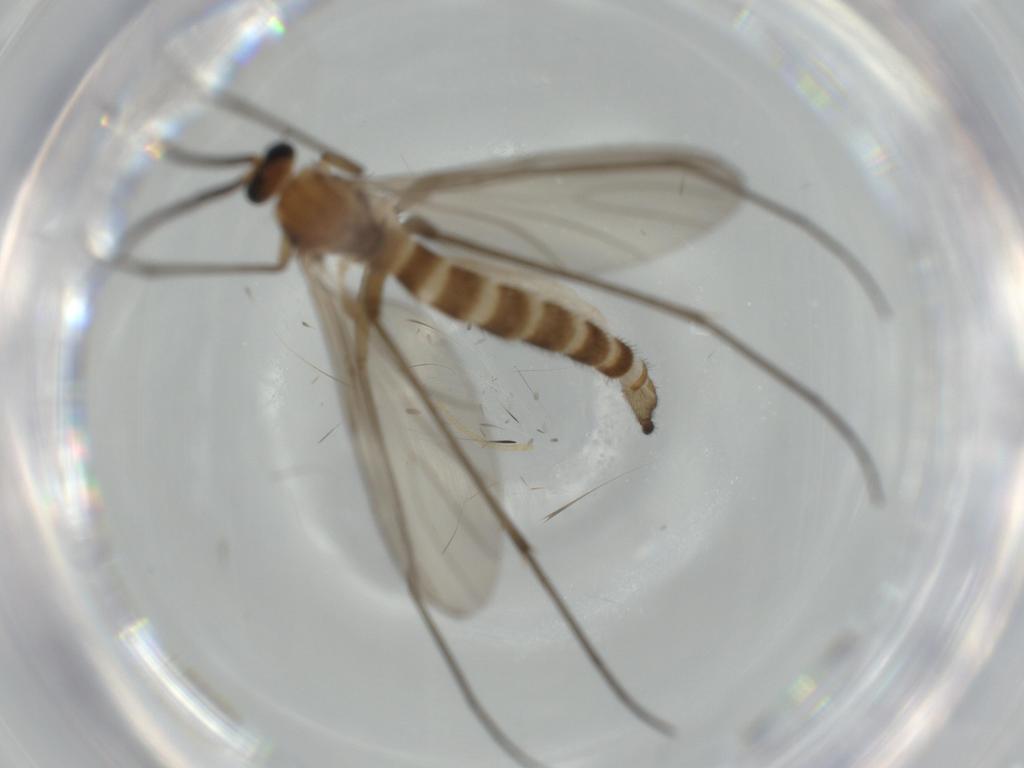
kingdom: Animalia
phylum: Arthropoda
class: Insecta
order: Diptera
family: Sciaridae
